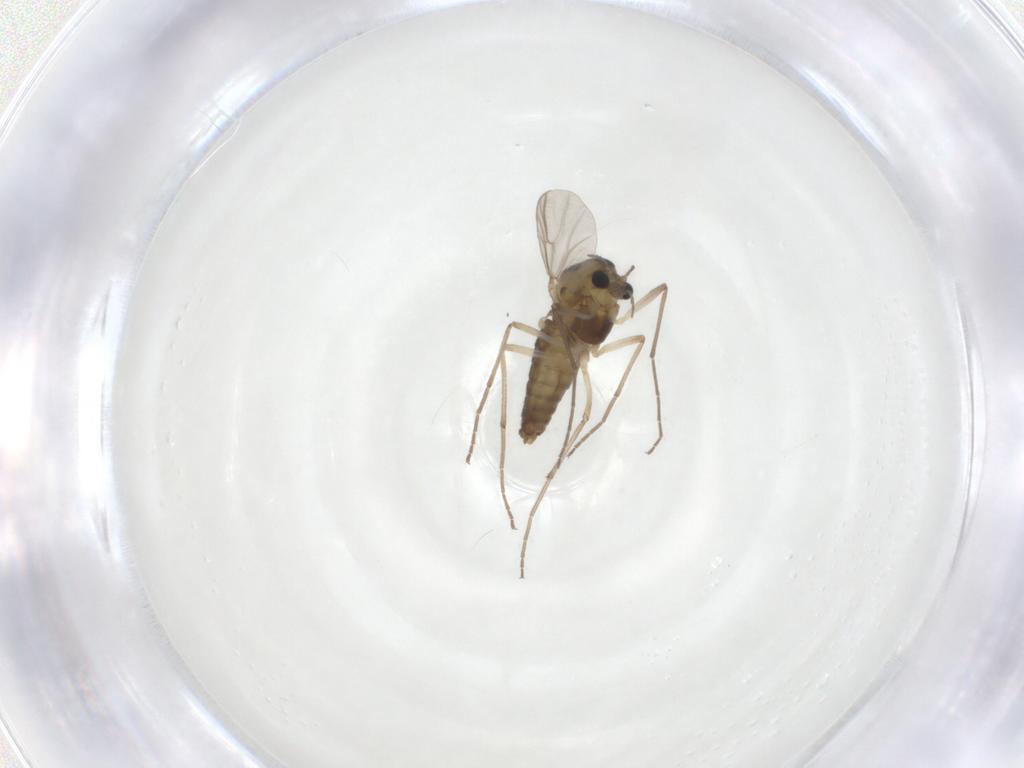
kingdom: Animalia
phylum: Arthropoda
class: Insecta
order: Diptera
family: Chironomidae
